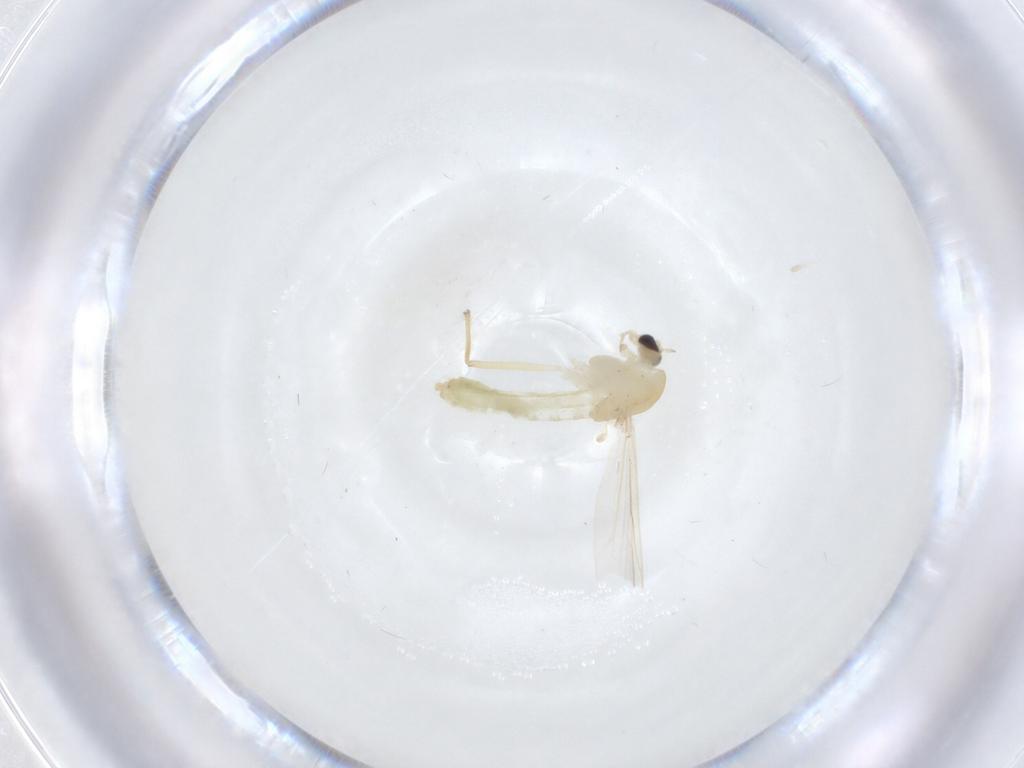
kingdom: Animalia
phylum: Arthropoda
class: Insecta
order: Diptera
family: Chironomidae
